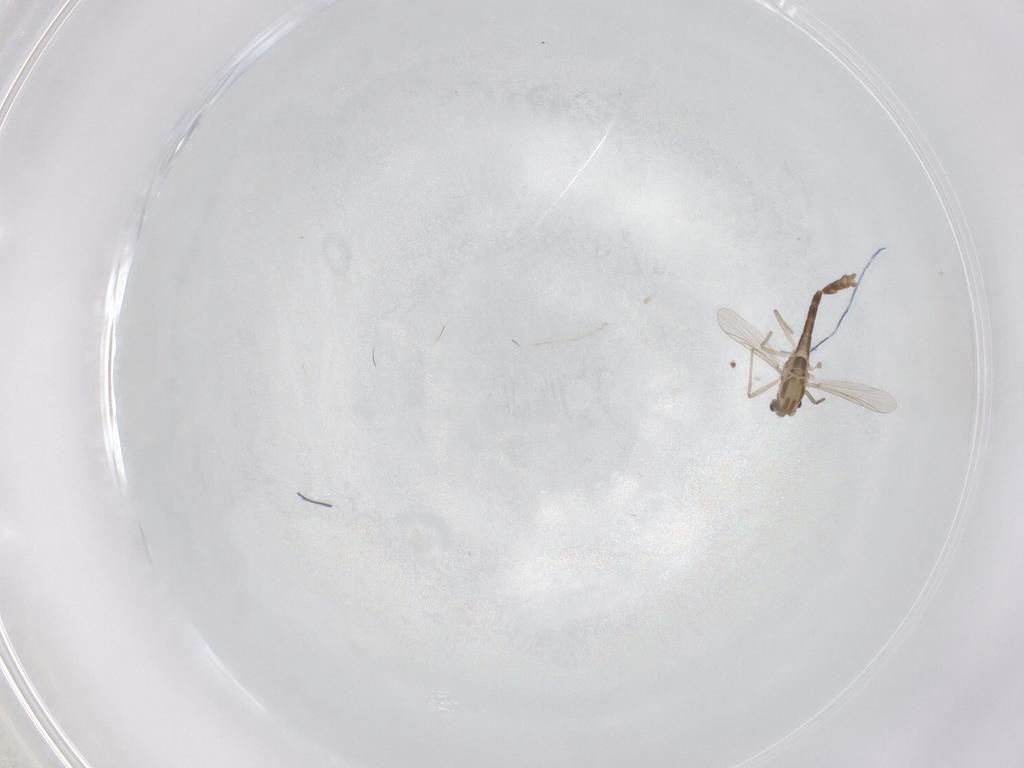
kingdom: Animalia
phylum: Arthropoda
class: Insecta
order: Diptera
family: Chironomidae
